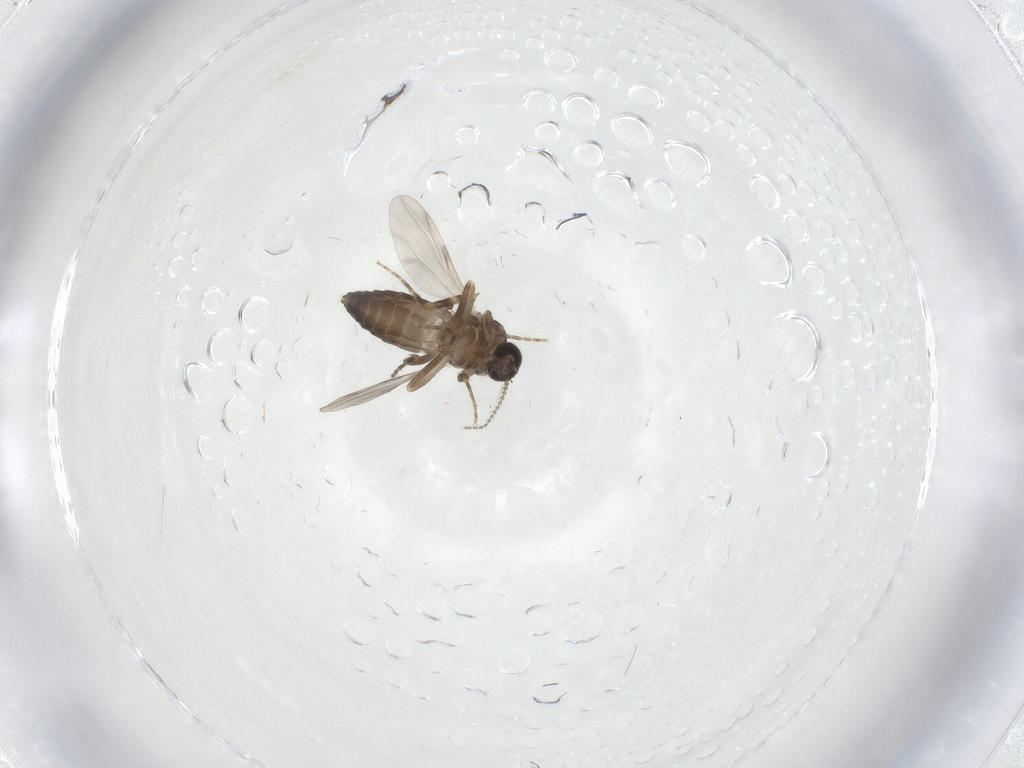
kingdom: Animalia
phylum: Arthropoda
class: Insecta
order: Diptera
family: Ceratopogonidae
